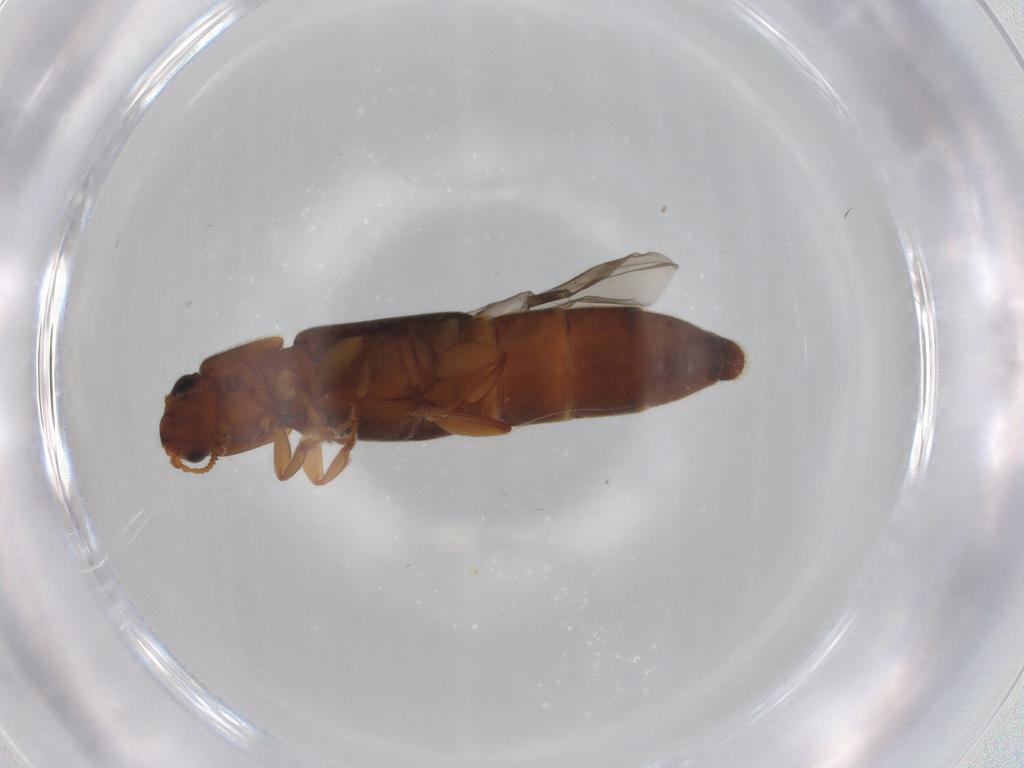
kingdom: Animalia
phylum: Arthropoda
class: Insecta
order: Coleoptera
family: Nitidulidae
